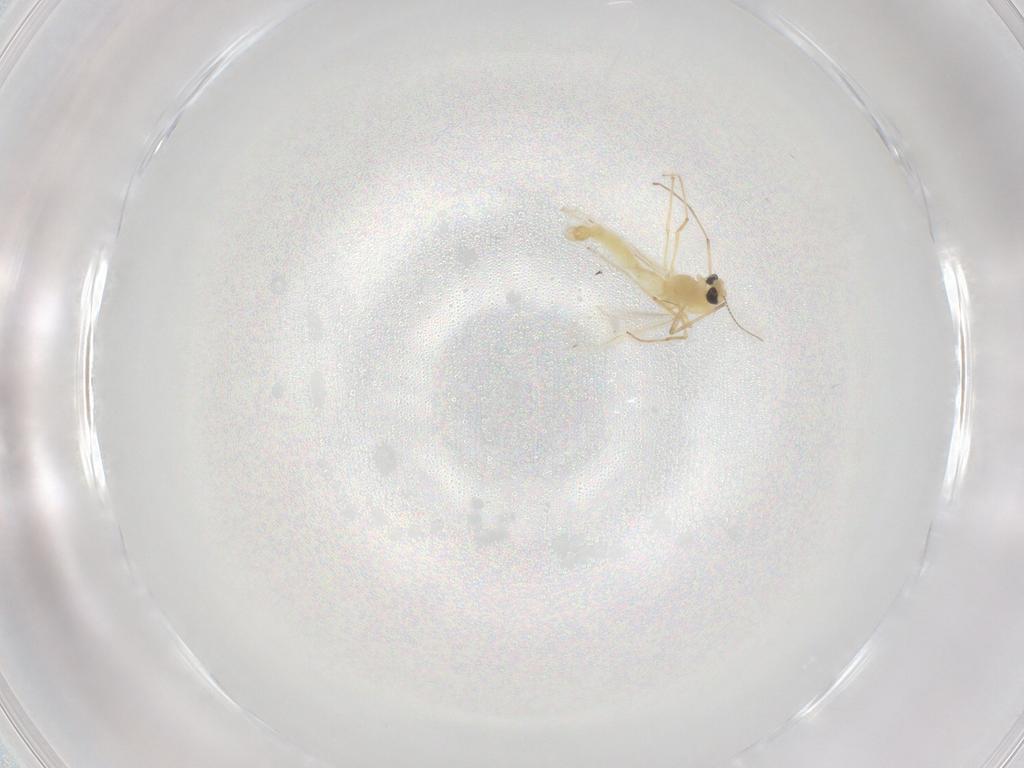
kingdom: Animalia
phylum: Arthropoda
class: Insecta
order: Diptera
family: Chironomidae
